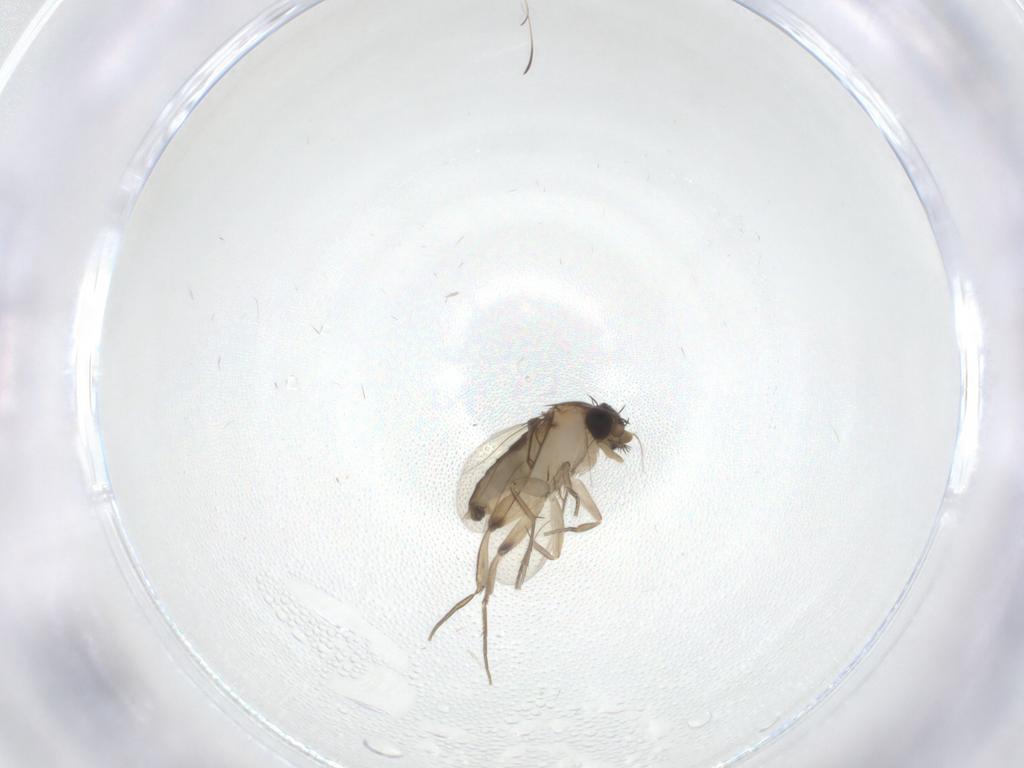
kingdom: Animalia
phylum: Arthropoda
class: Insecta
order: Diptera
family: Phoridae
